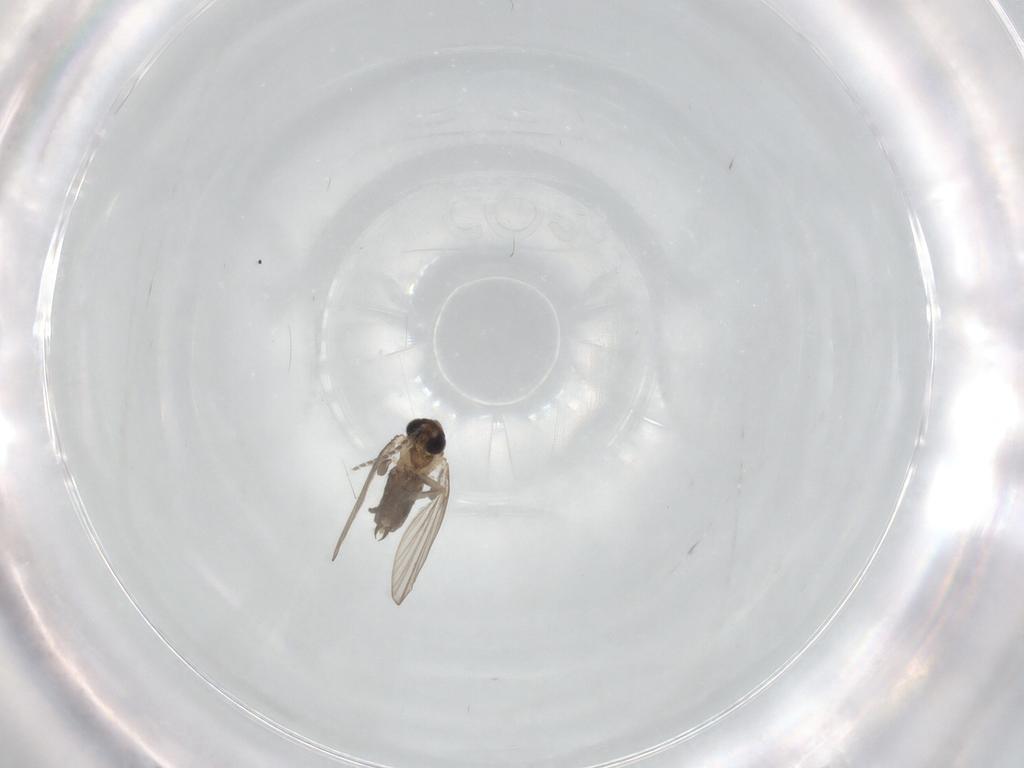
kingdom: Animalia
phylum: Arthropoda
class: Insecta
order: Diptera
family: Psychodidae
